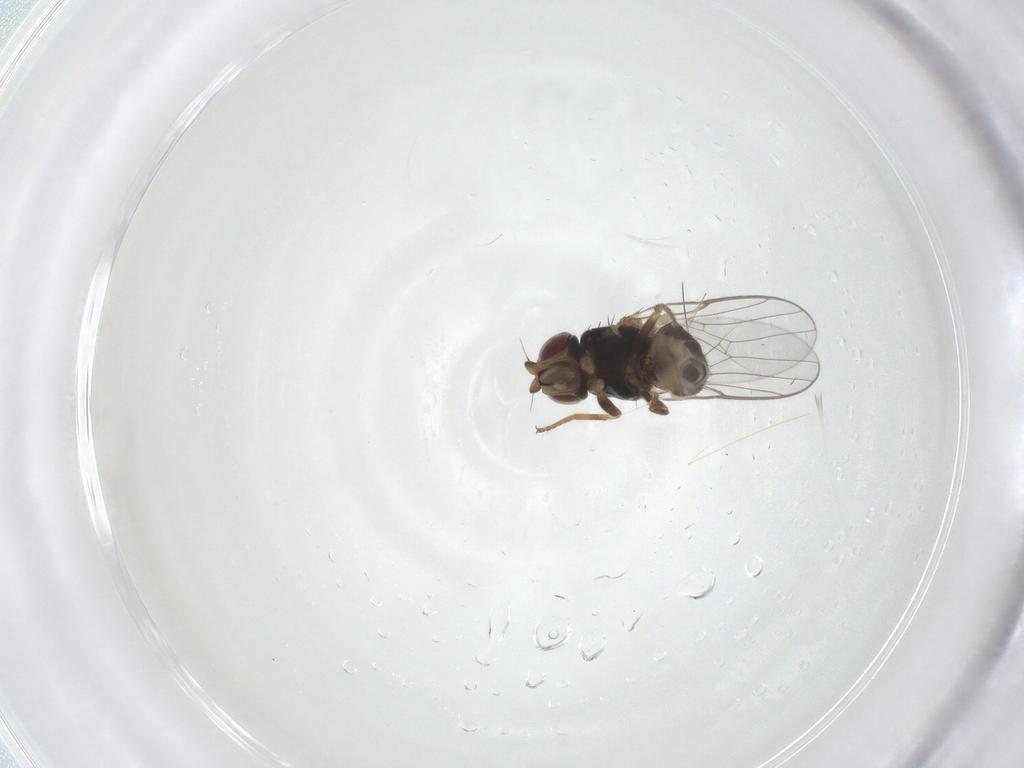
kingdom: Animalia
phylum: Arthropoda
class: Insecta
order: Diptera
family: Chloropidae
